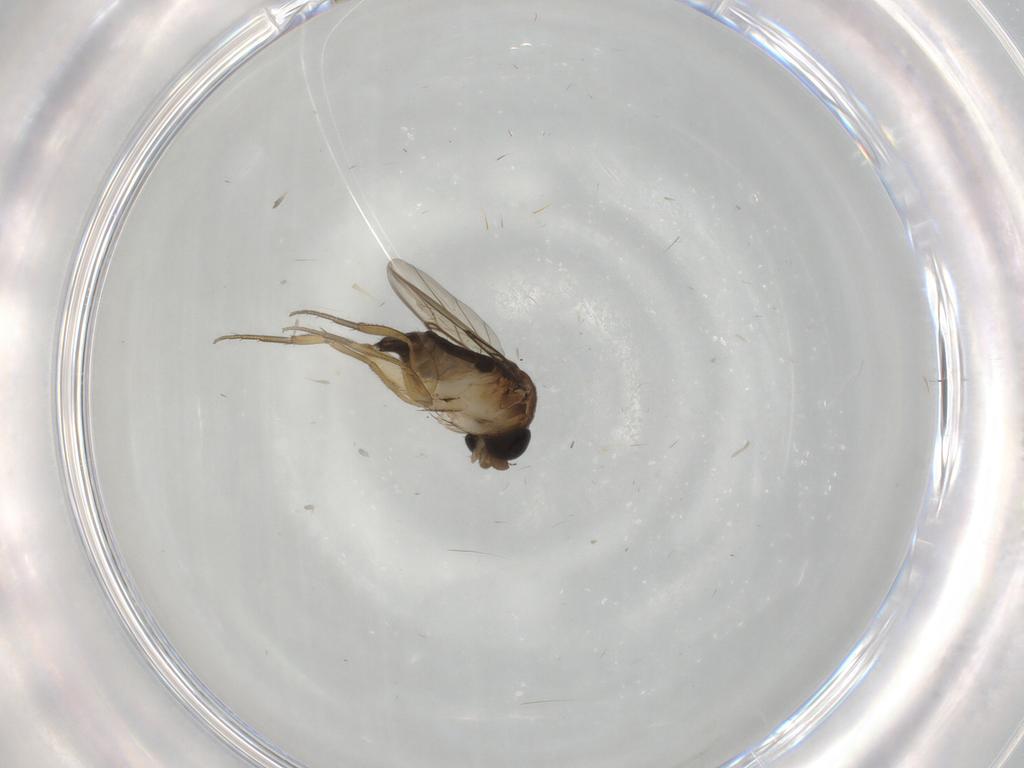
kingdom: Animalia
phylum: Arthropoda
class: Insecta
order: Diptera
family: Phoridae
